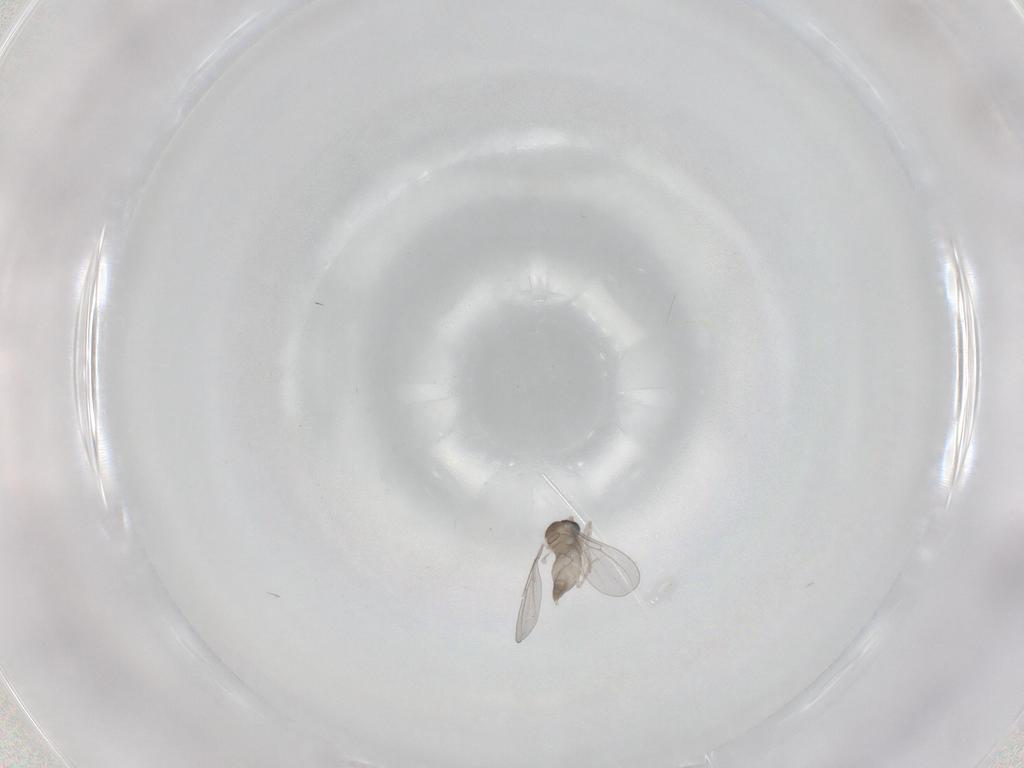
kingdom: Animalia
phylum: Arthropoda
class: Insecta
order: Diptera
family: Cecidomyiidae
